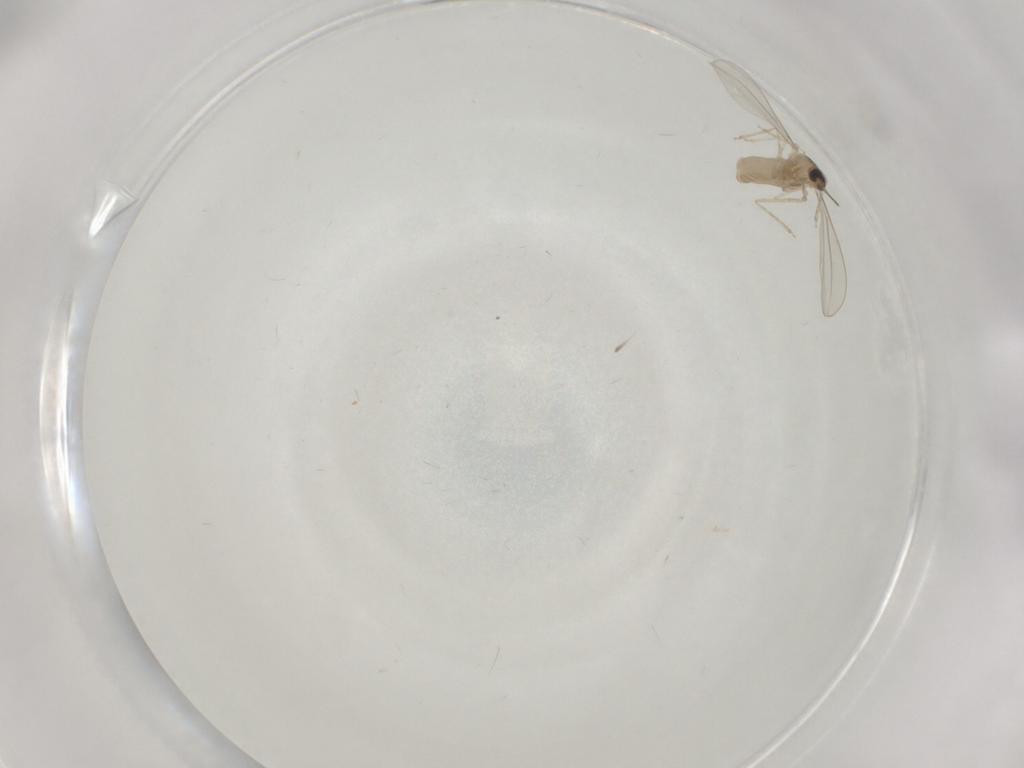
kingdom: Animalia
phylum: Arthropoda
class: Insecta
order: Diptera
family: Cecidomyiidae
